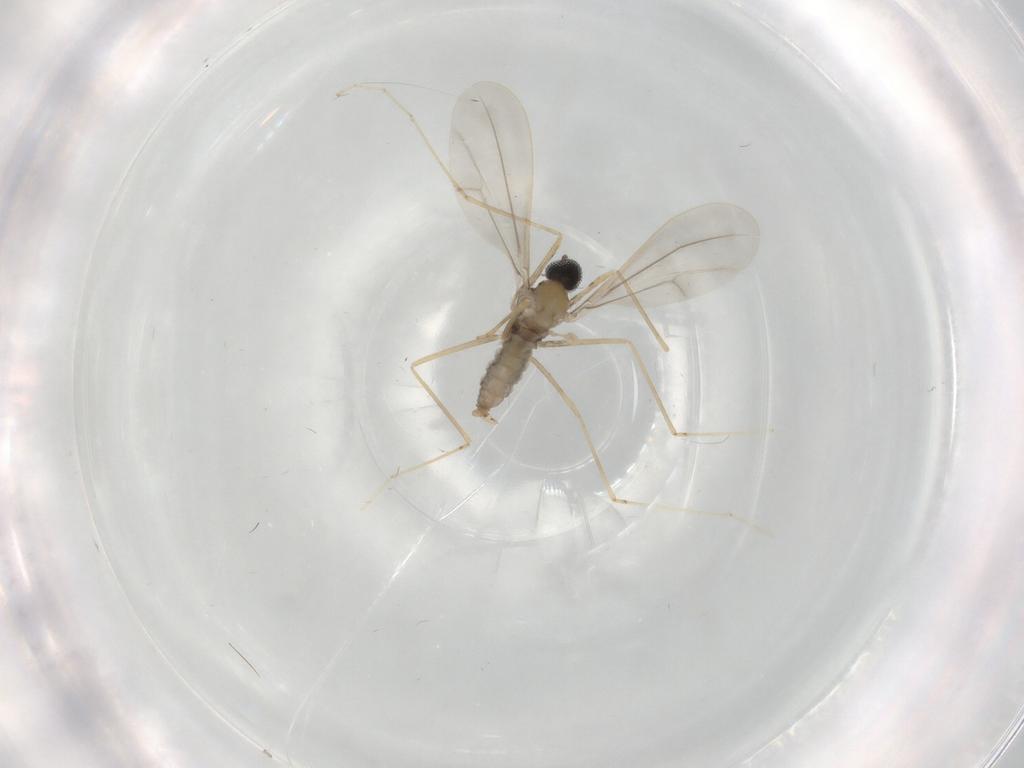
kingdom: Animalia
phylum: Arthropoda
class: Insecta
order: Diptera
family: Cecidomyiidae
